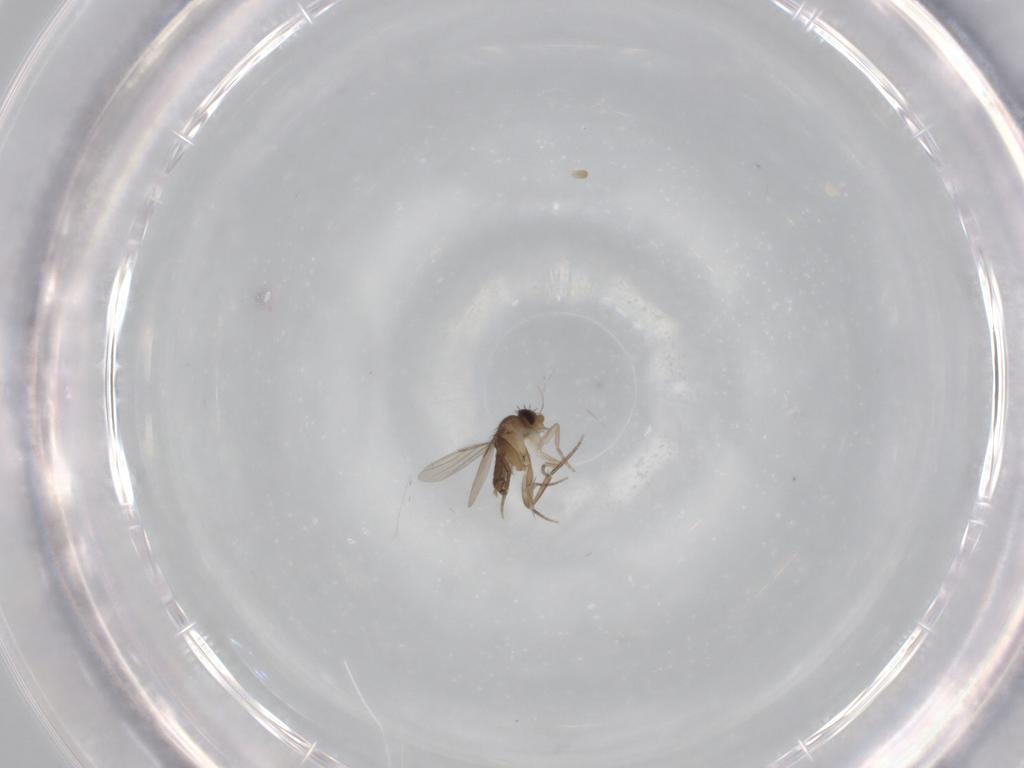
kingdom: Animalia
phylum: Arthropoda
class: Insecta
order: Diptera
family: Phoridae
